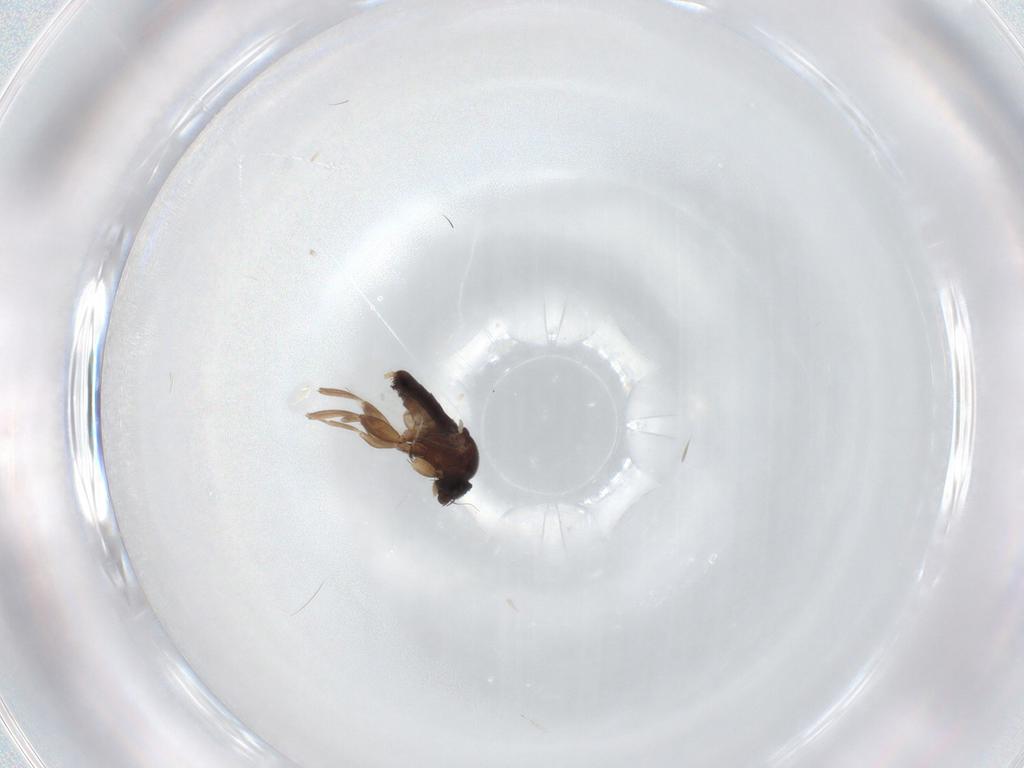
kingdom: Animalia
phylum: Arthropoda
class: Insecta
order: Diptera
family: Phoridae
